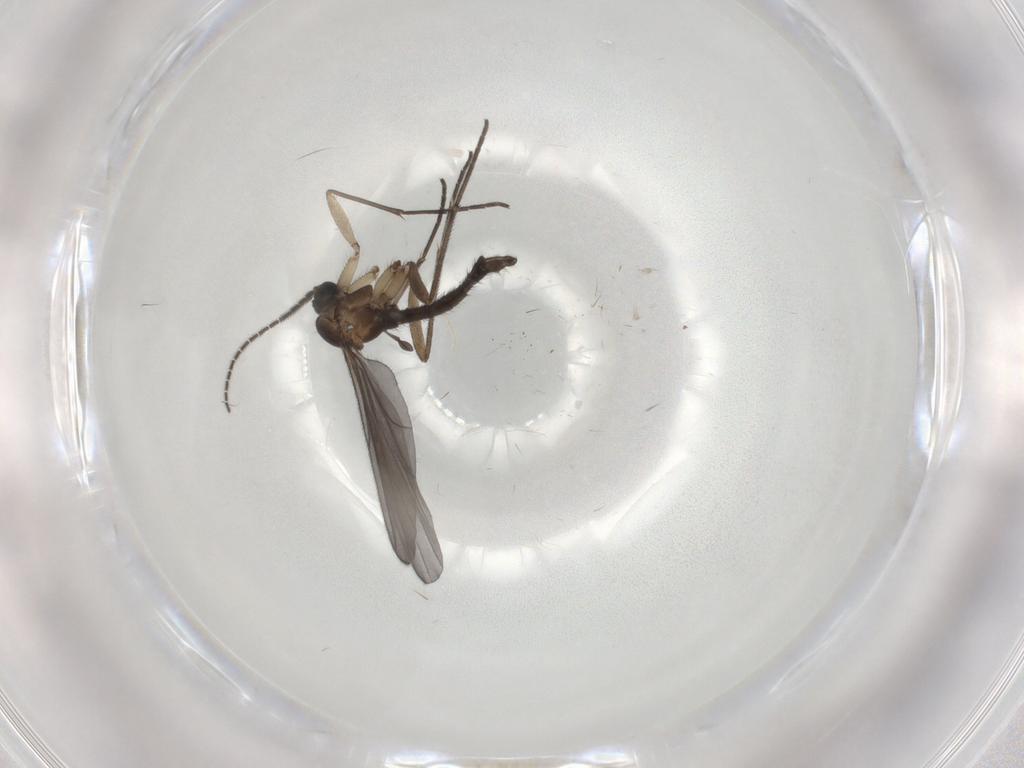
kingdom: Animalia
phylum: Arthropoda
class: Insecta
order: Diptera
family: Sciaridae
